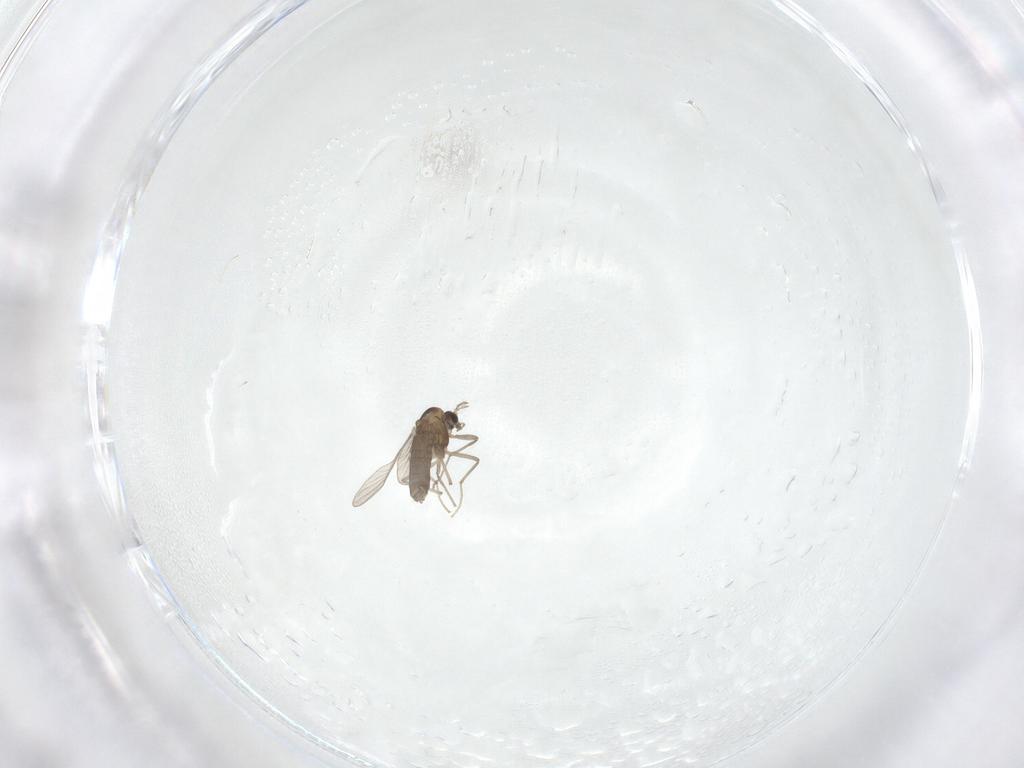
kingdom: Animalia
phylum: Arthropoda
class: Insecta
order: Diptera
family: Chironomidae
